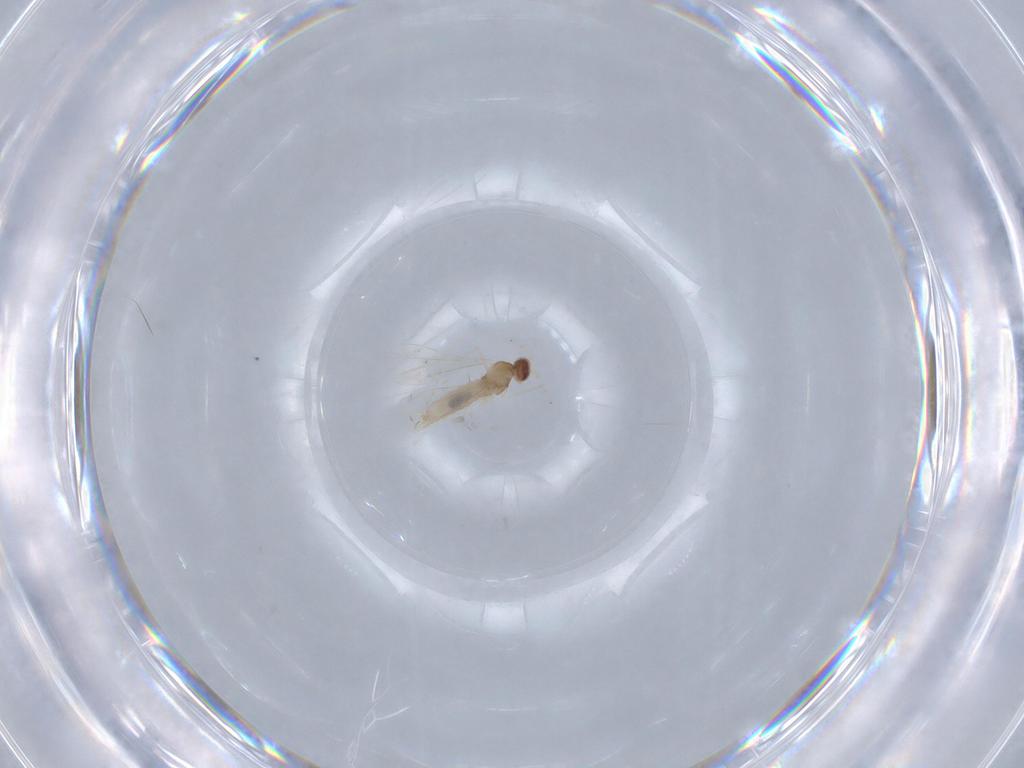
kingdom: Animalia
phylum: Arthropoda
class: Insecta
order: Diptera
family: Cecidomyiidae
